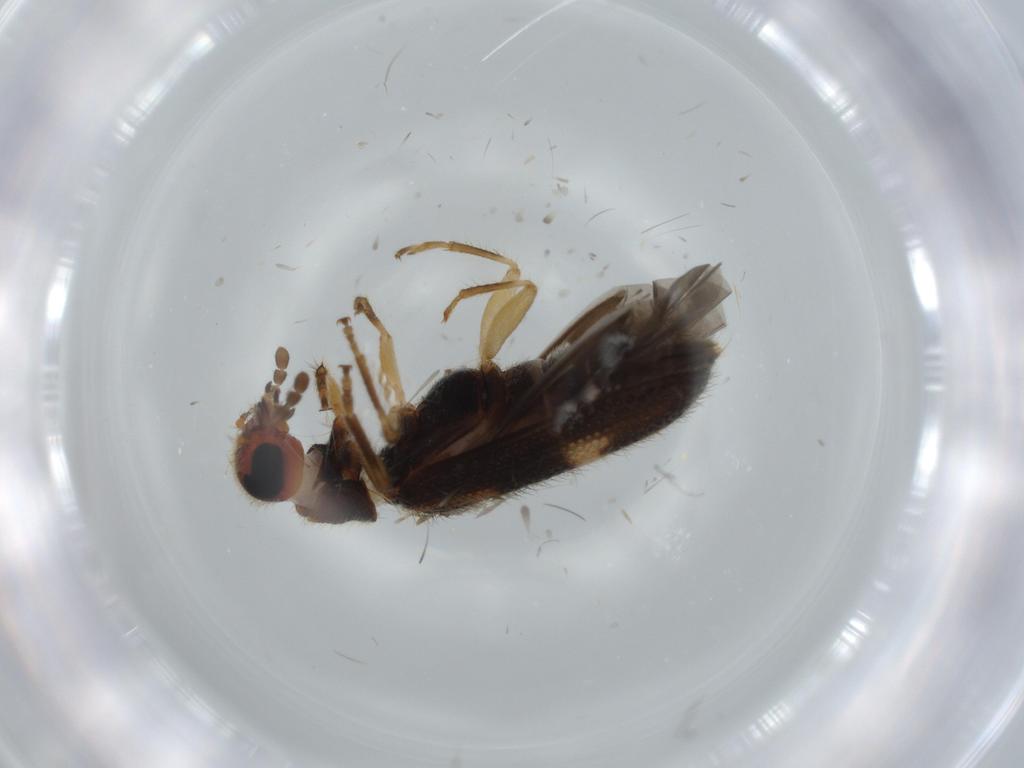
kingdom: Animalia
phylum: Arthropoda
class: Insecta
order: Coleoptera
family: Cleridae
